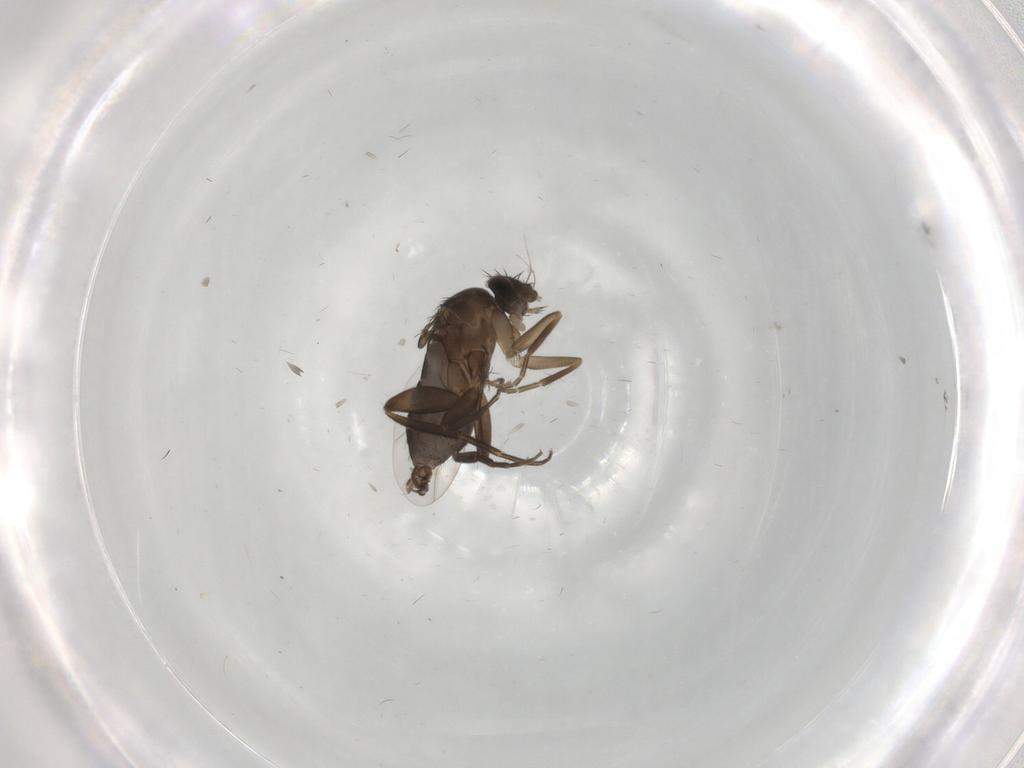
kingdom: Animalia
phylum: Arthropoda
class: Insecta
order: Diptera
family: Phoridae
